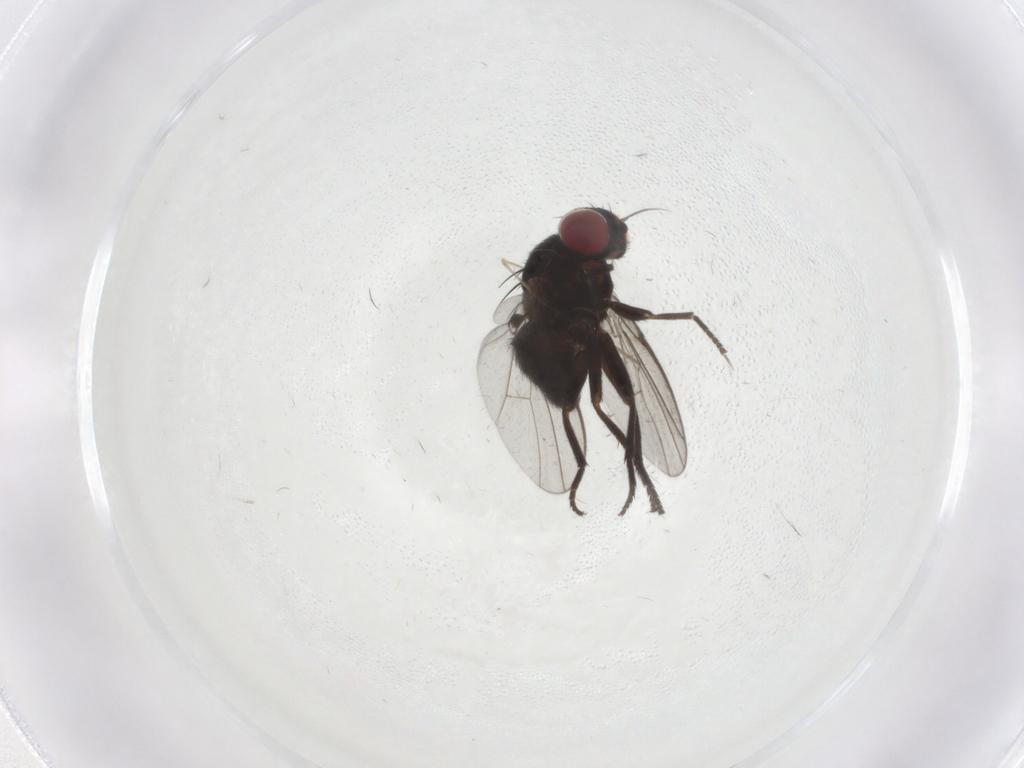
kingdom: Animalia
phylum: Arthropoda
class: Insecta
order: Diptera
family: Agromyzidae
